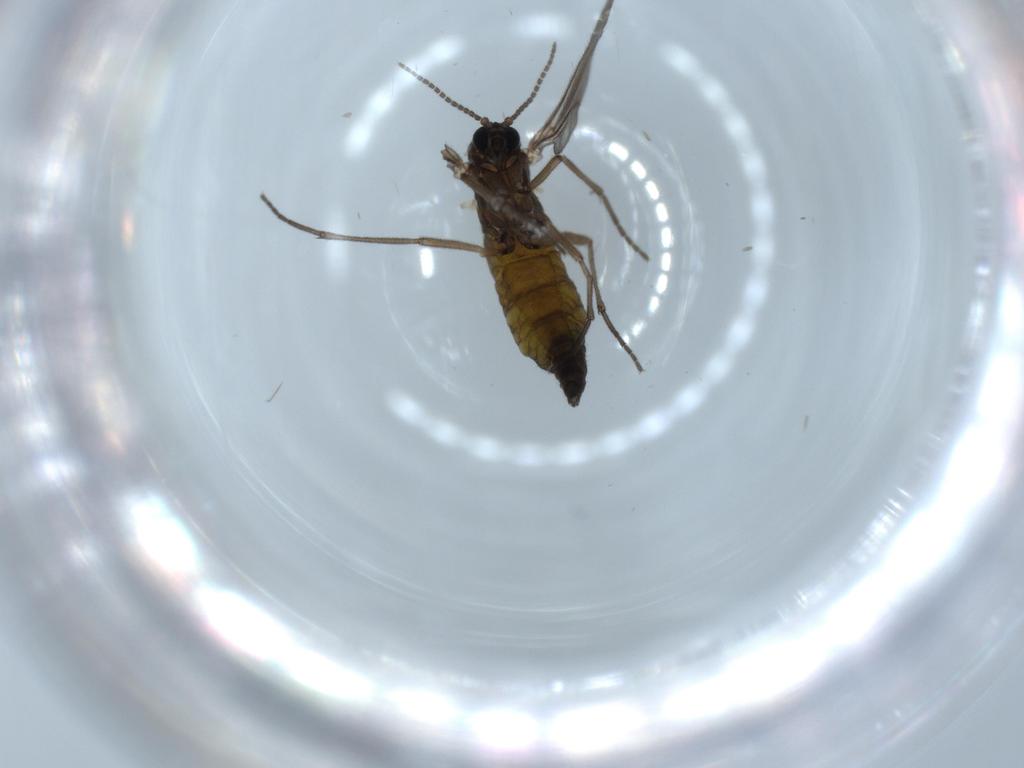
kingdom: Animalia
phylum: Arthropoda
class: Insecta
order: Diptera
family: Sciaridae
